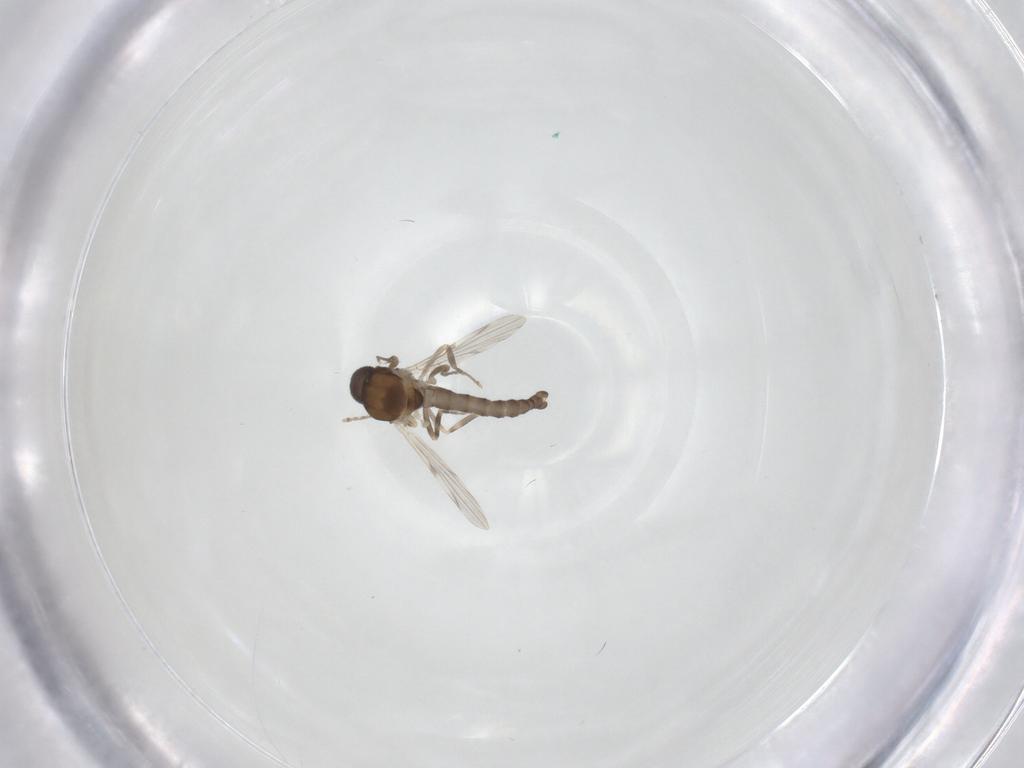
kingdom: Animalia
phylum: Arthropoda
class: Insecta
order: Diptera
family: Ceratopogonidae
